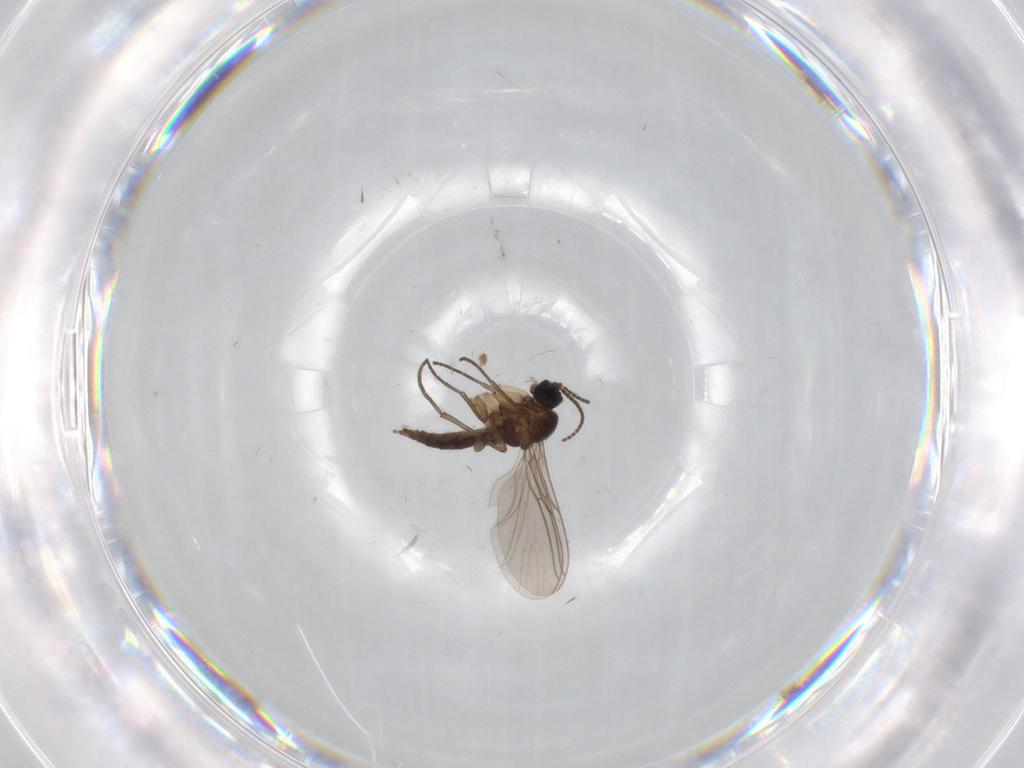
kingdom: Animalia
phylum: Arthropoda
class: Insecta
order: Diptera
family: Sciaridae
